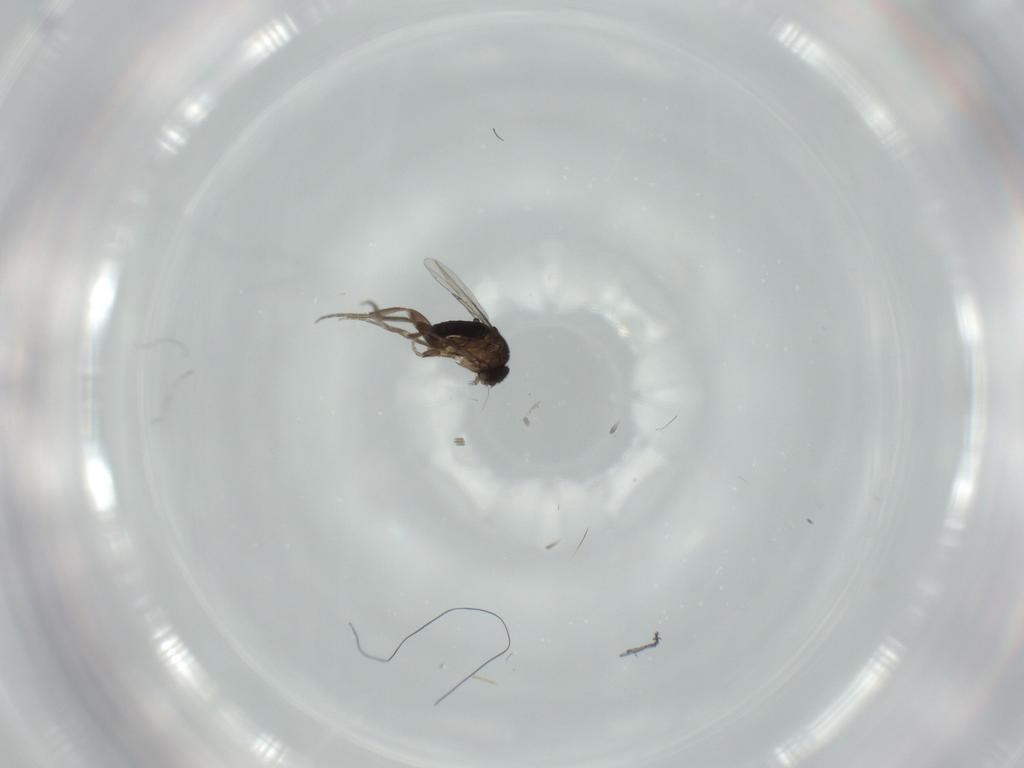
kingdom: Animalia
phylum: Arthropoda
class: Insecta
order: Diptera
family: Phoridae
